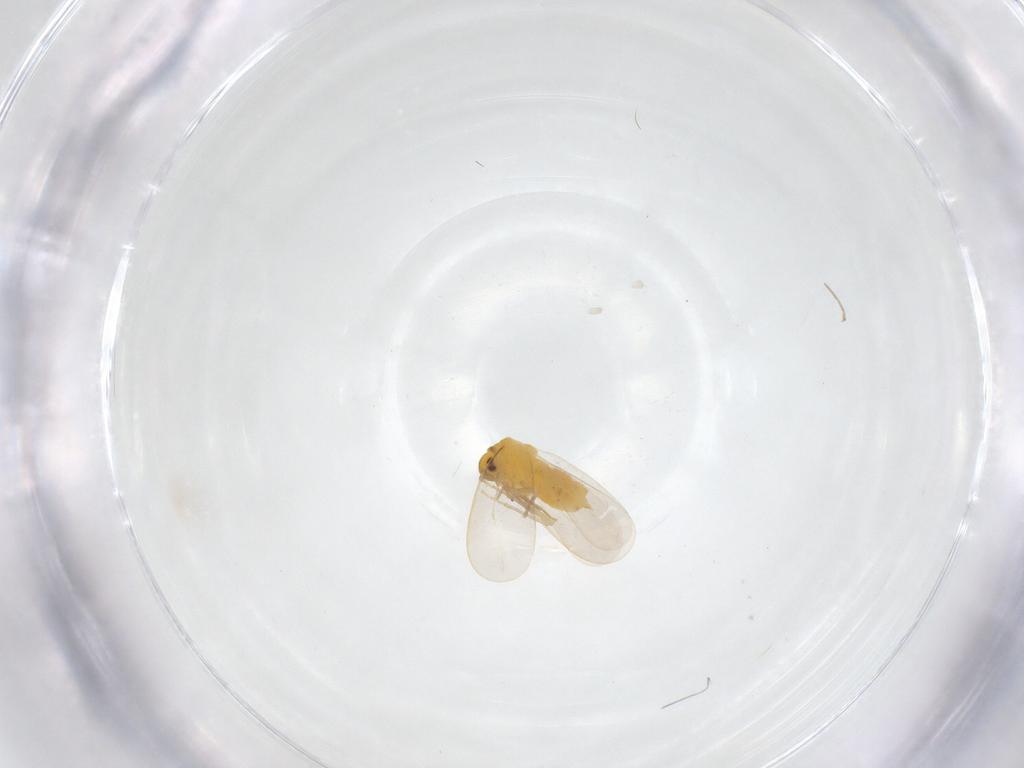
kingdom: Animalia
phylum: Arthropoda
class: Insecta
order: Hemiptera
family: Aleyrodidae
